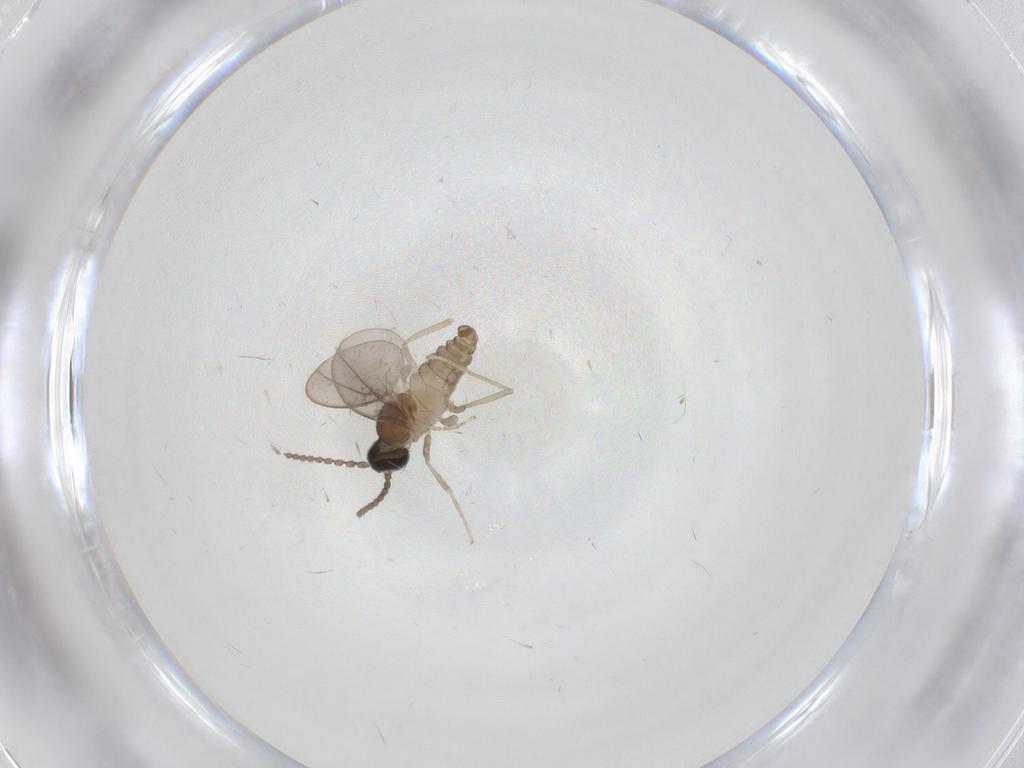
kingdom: Animalia
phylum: Arthropoda
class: Insecta
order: Diptera
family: Limoniidae
